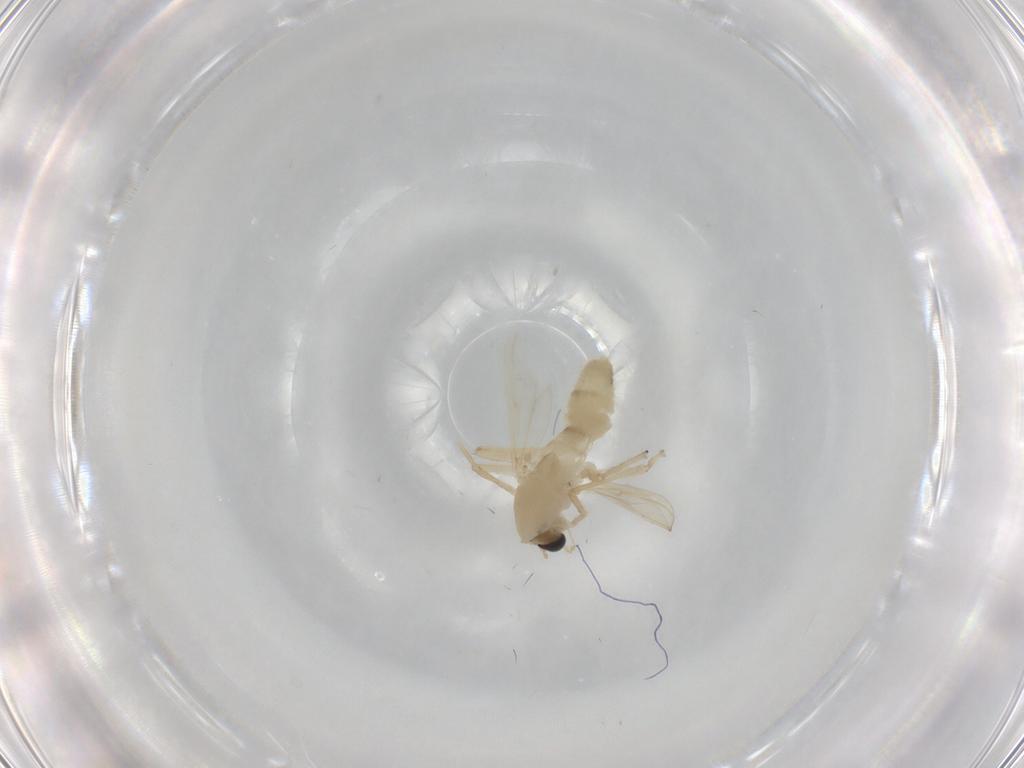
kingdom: Animalia
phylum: Arthropoda
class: Insecta
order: Diptera
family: Chironomidae
